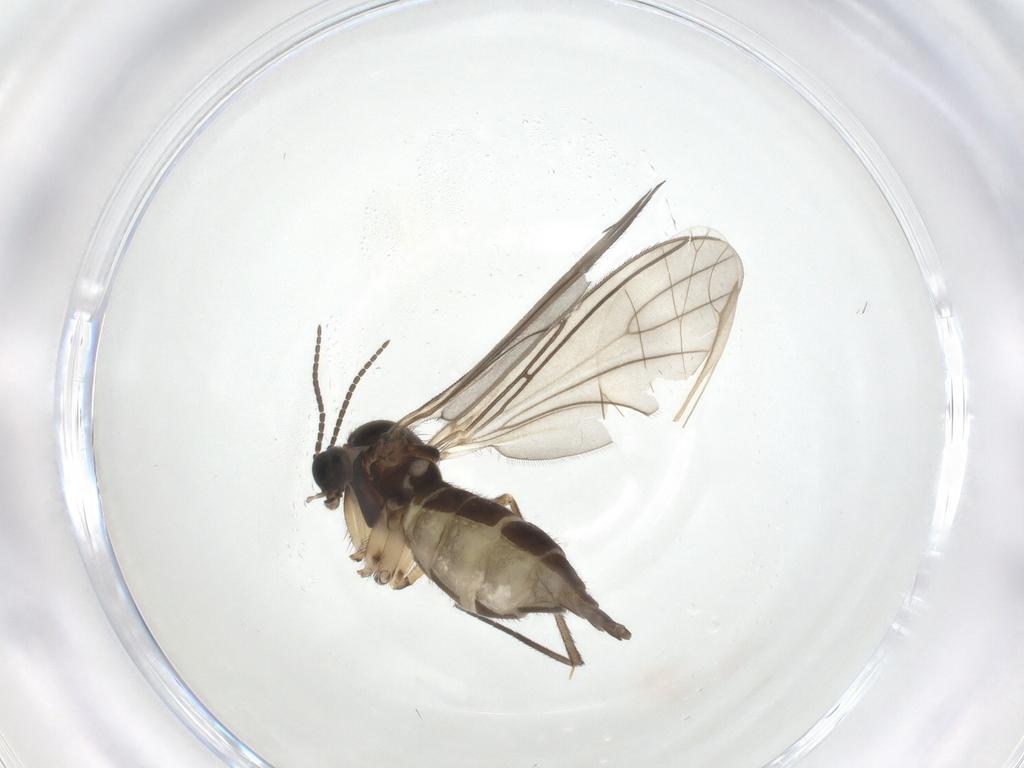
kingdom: Animalia
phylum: Arthropoda
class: Insecta
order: Diptera
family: Sciaridae
